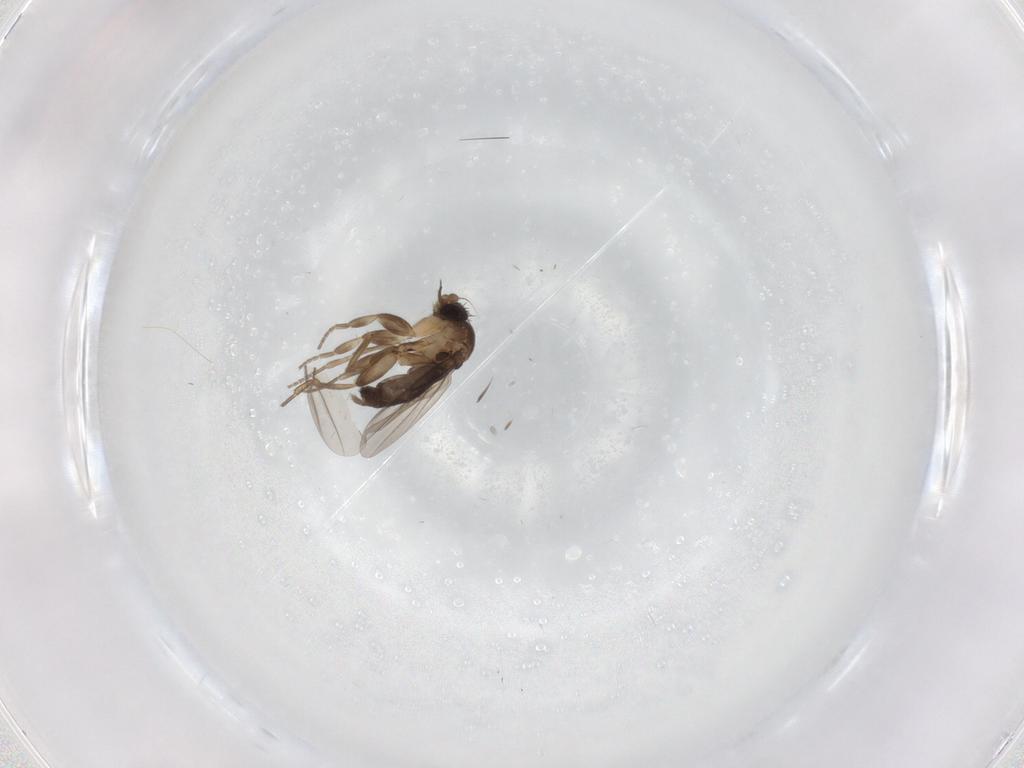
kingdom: Animalia
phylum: Arthropoda
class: Insecta
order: Diptera
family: Phoridae
